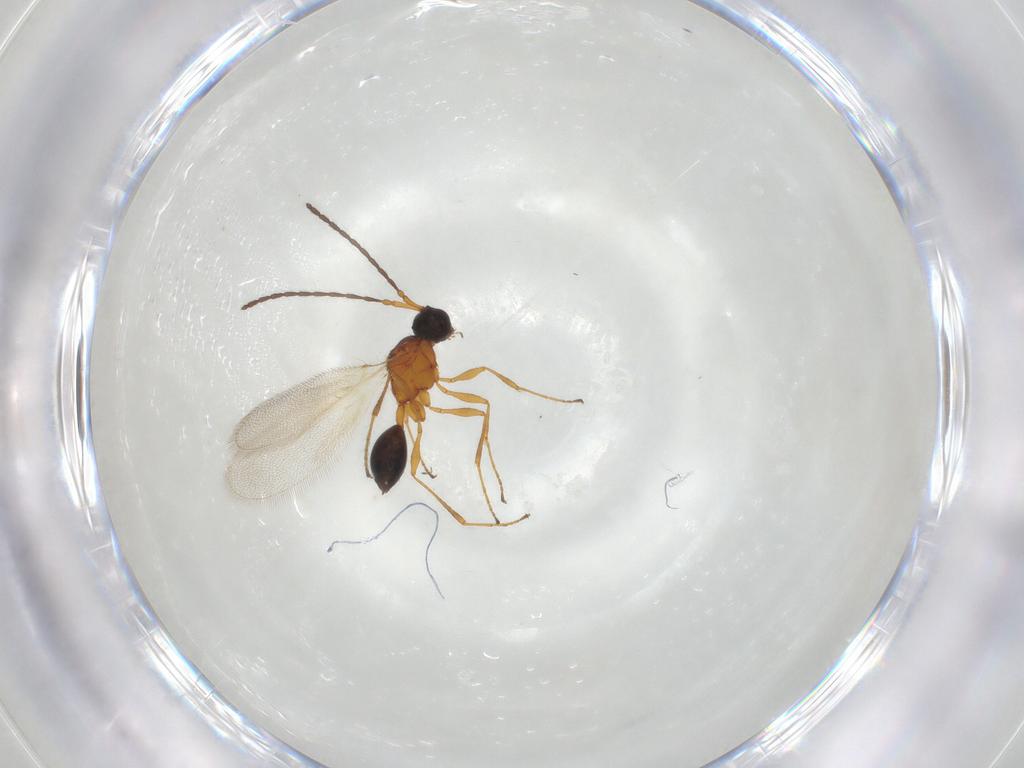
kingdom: Animalia
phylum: Arthropoda
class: Insecta
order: Hymenoptera
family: Diapriidae
